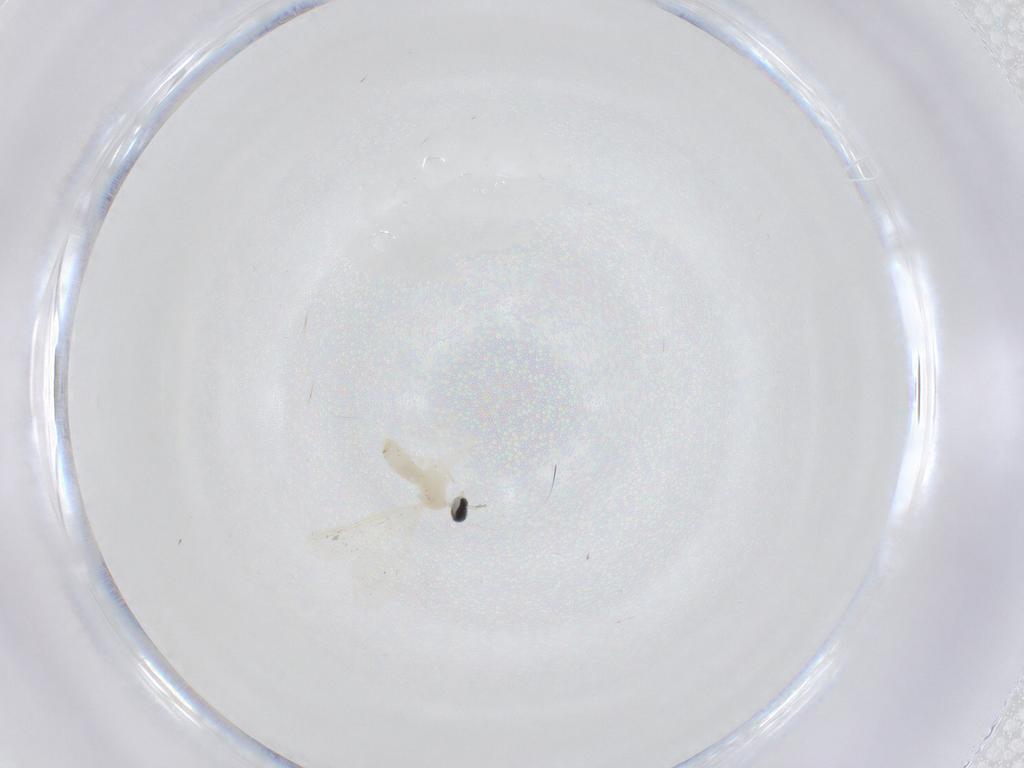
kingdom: Animalia
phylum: Arthropoda
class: Insecta
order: Diptera
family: Cecidomyiidae
